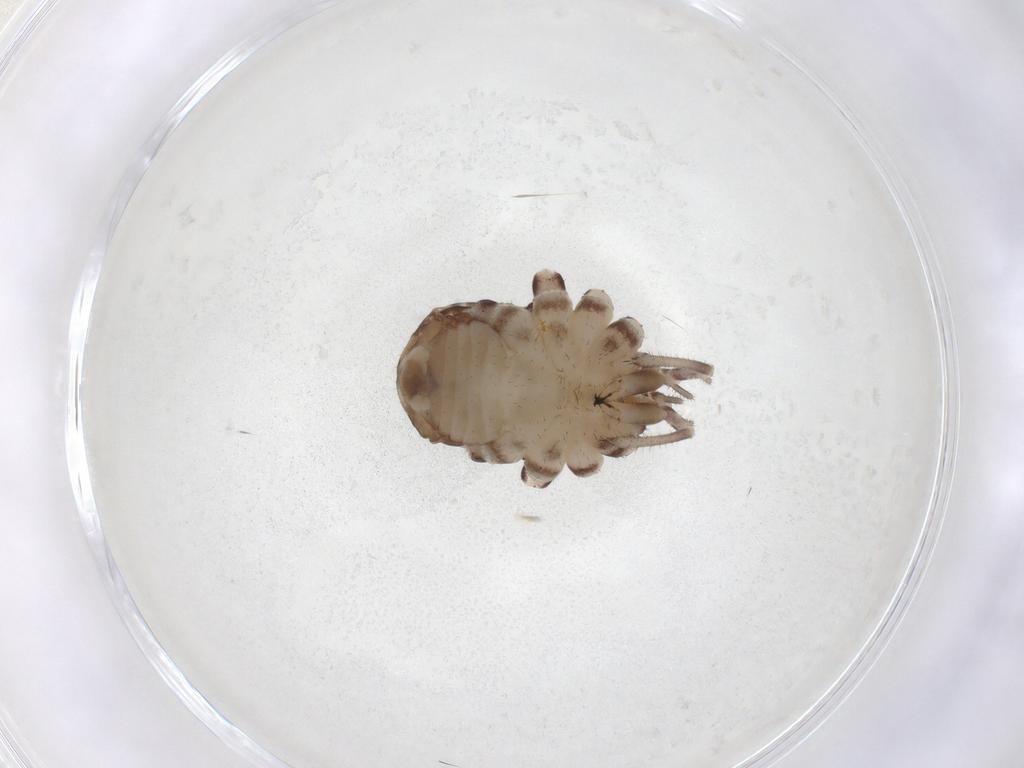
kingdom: Animalia
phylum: Arthropoda
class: Arachnida
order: Opiliones
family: Sclerosomatidae
